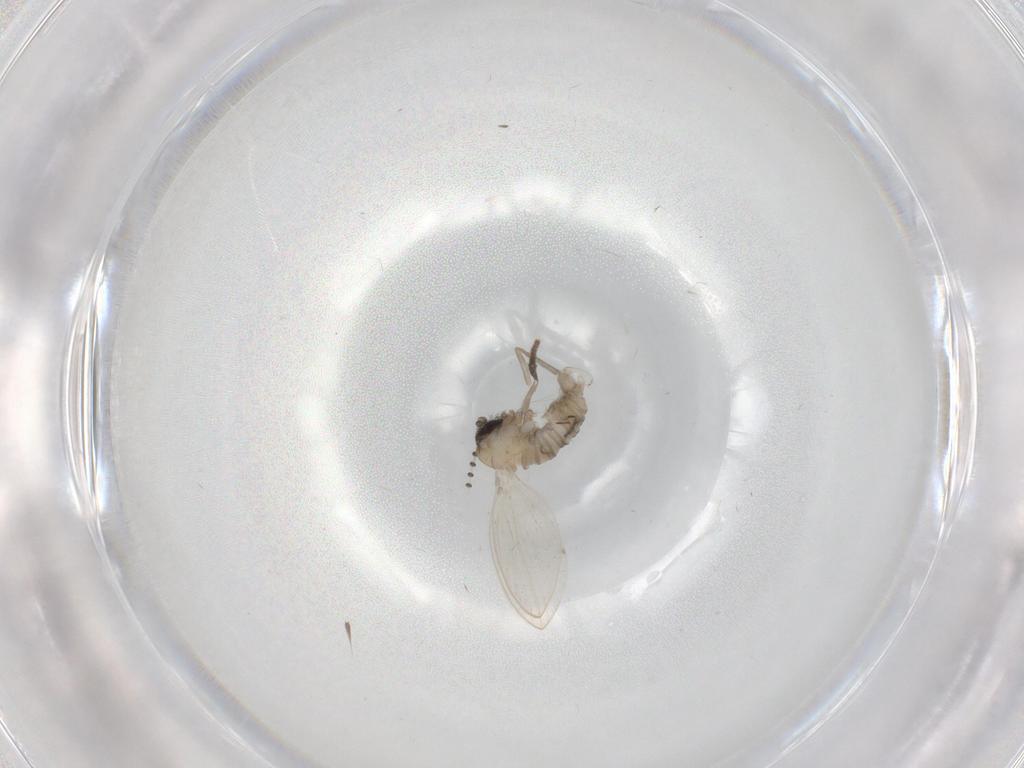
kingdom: Animalia
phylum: Arthropoda
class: Insecta
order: Diptera
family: Psychodidae
